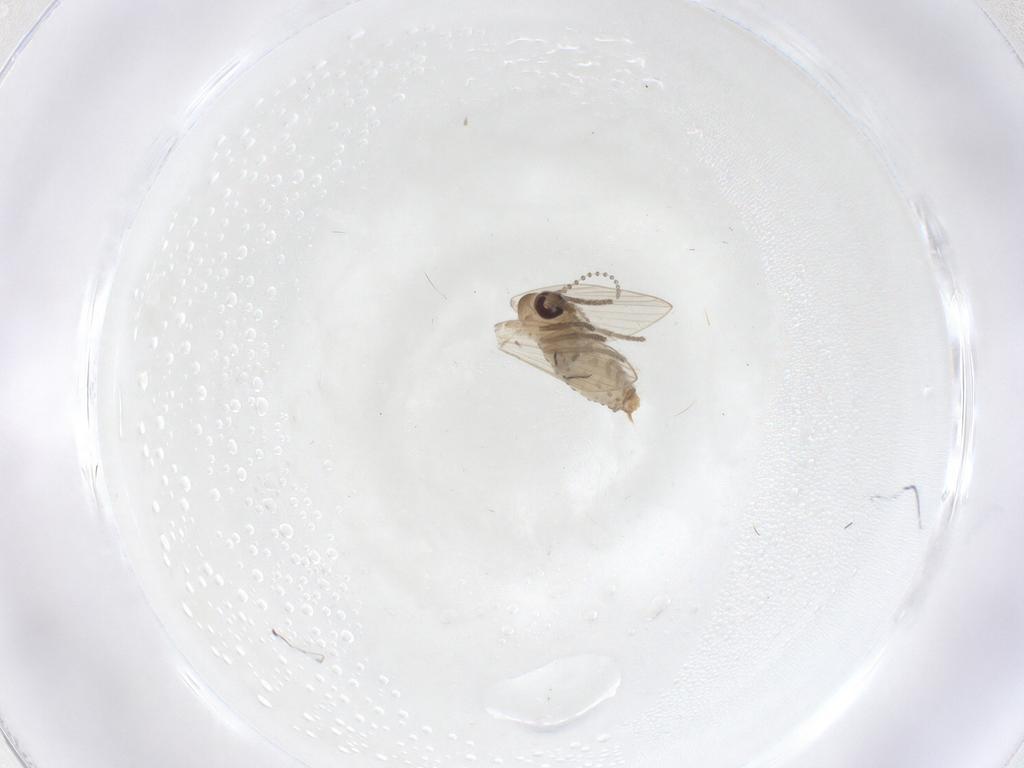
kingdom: Animalia
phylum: Arthropoda
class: Insecta
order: Diptera
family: Psychodidae
